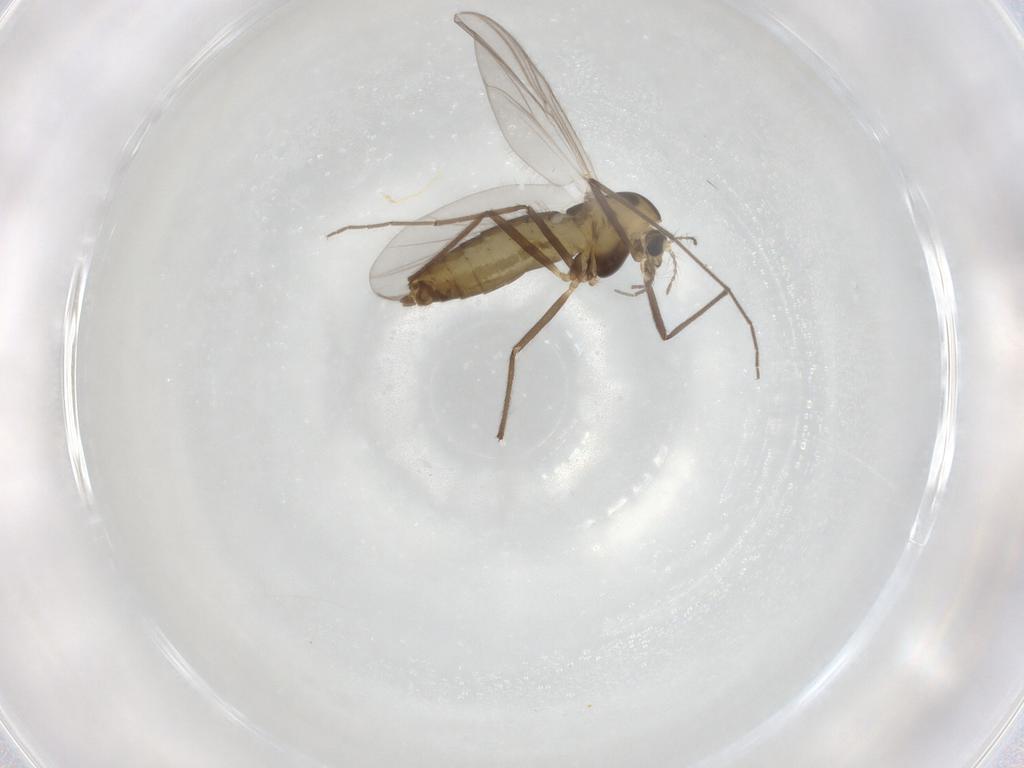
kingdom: Animalia
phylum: Arthropoda
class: Insecta
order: Diptera
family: Chironomidae
